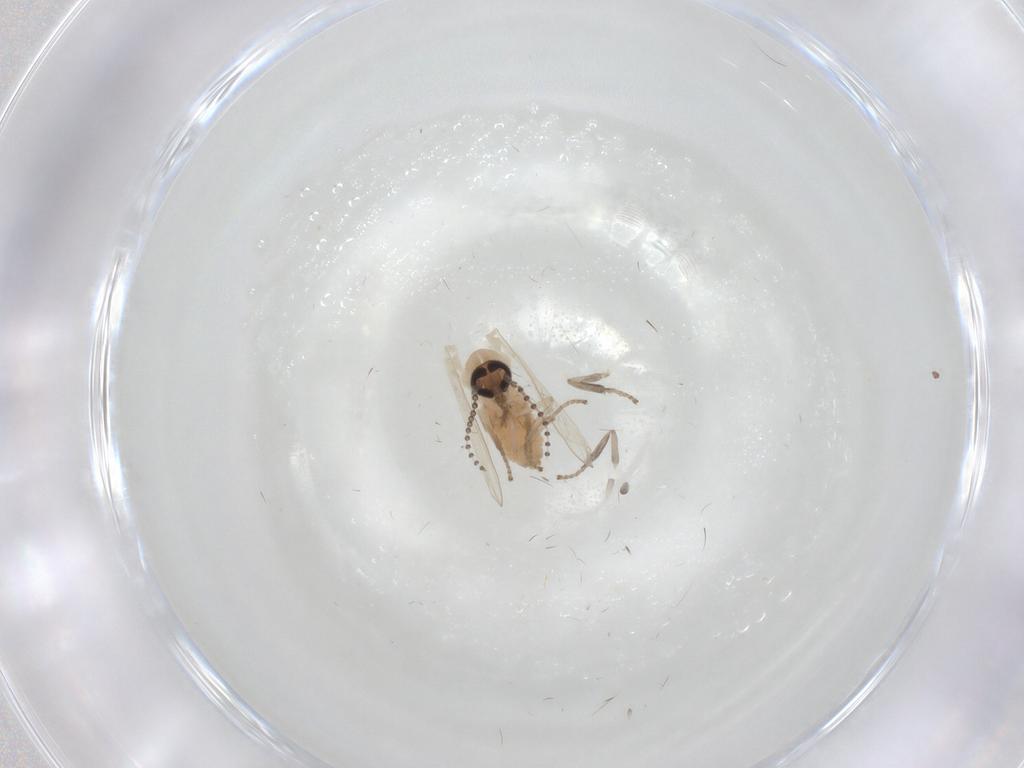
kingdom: Animalia
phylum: Arthropoda
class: Insecta
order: Diptera
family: Psychodidae
